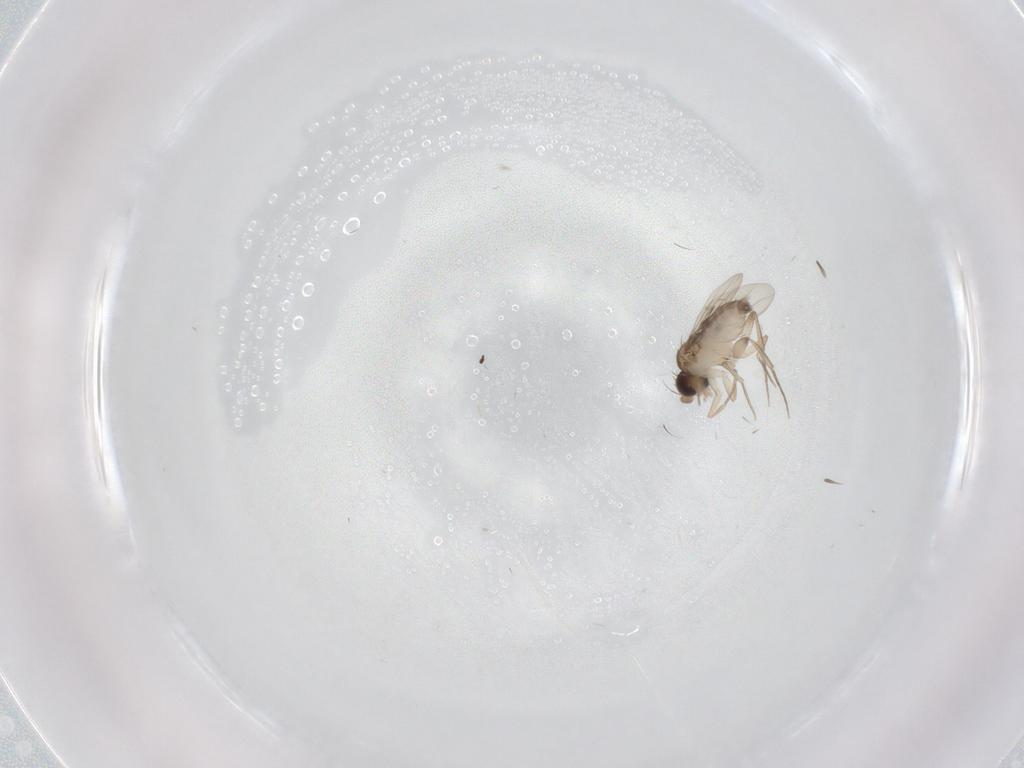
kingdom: Animalia
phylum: Arthropoda
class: Insecta
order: Diptera
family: Phoridae
